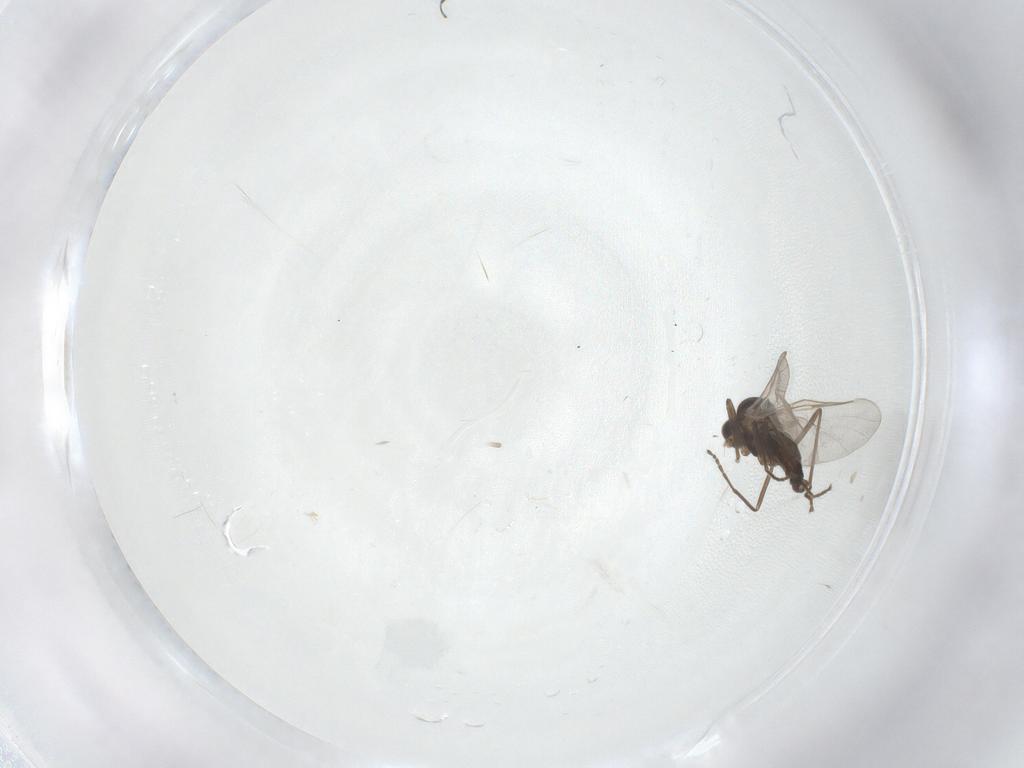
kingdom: Animalia
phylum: Arthropoda
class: Insecta
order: Diptera
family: Cecidomyiidae
